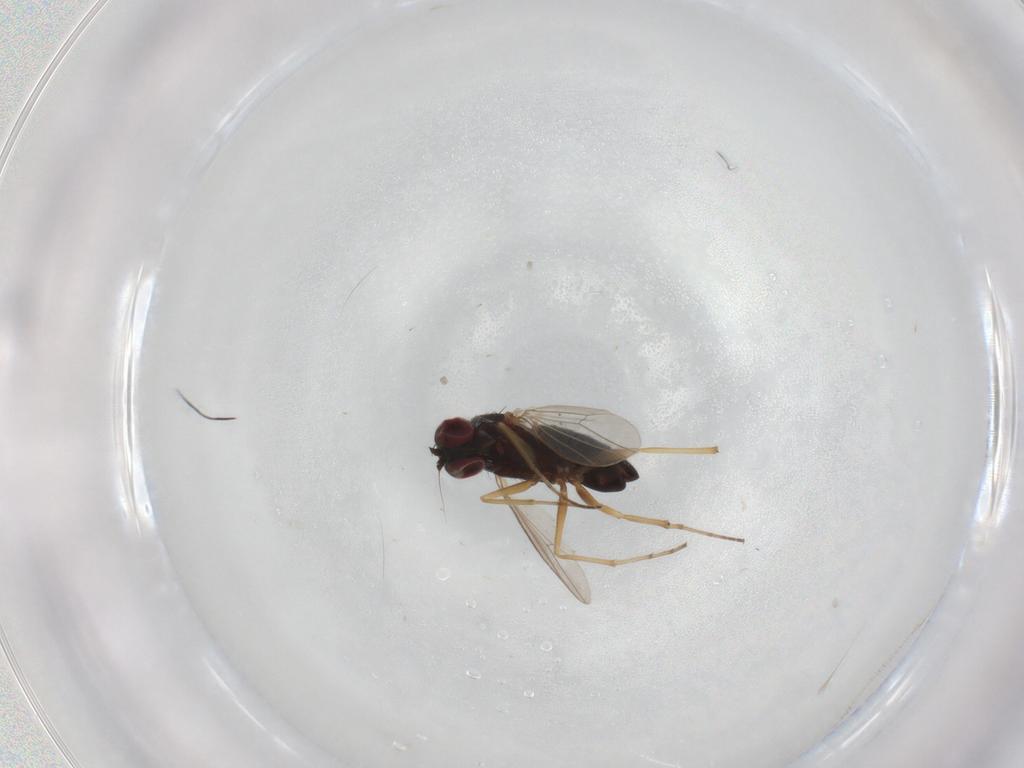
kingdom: Animalia
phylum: Arthropoda
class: Insecta
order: Diptera
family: Dolichopodidae
